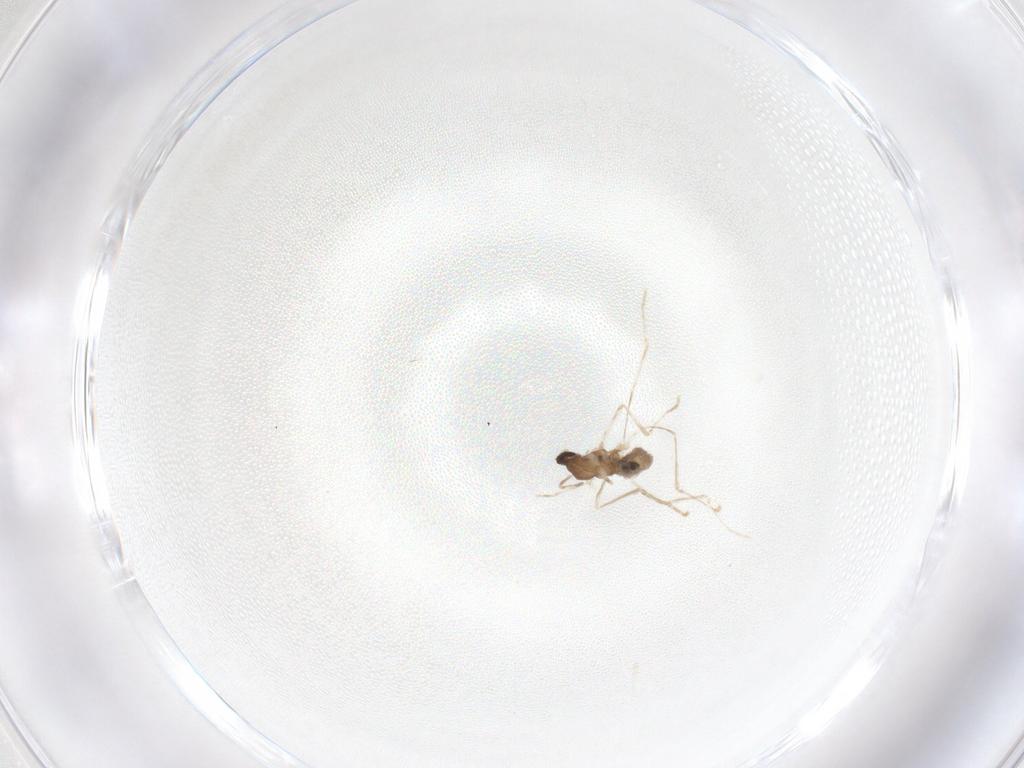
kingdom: Animalia
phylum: Arthropoda
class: Insecta
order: Diptera
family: Cecidomyiidae
